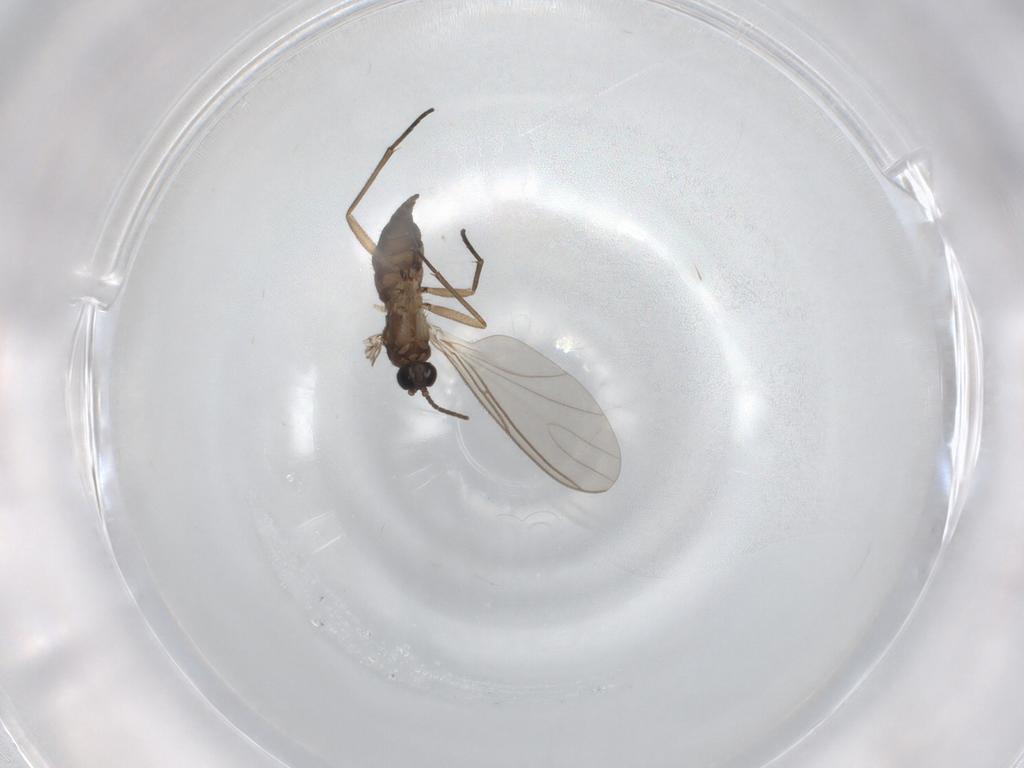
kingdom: Animalia
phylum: Arthropoda
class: Insecta
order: Diptera
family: Sciaridae
